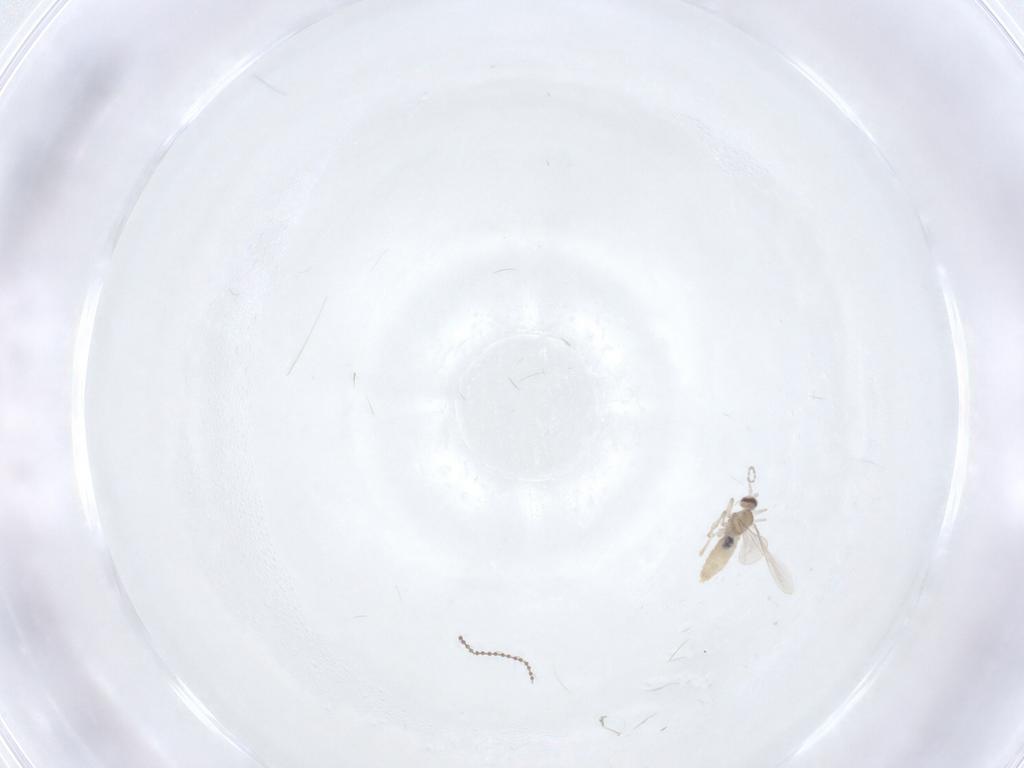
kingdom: Animalia
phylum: Arthropoda
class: Insecta
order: Diptera
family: Cecidomyiidae
